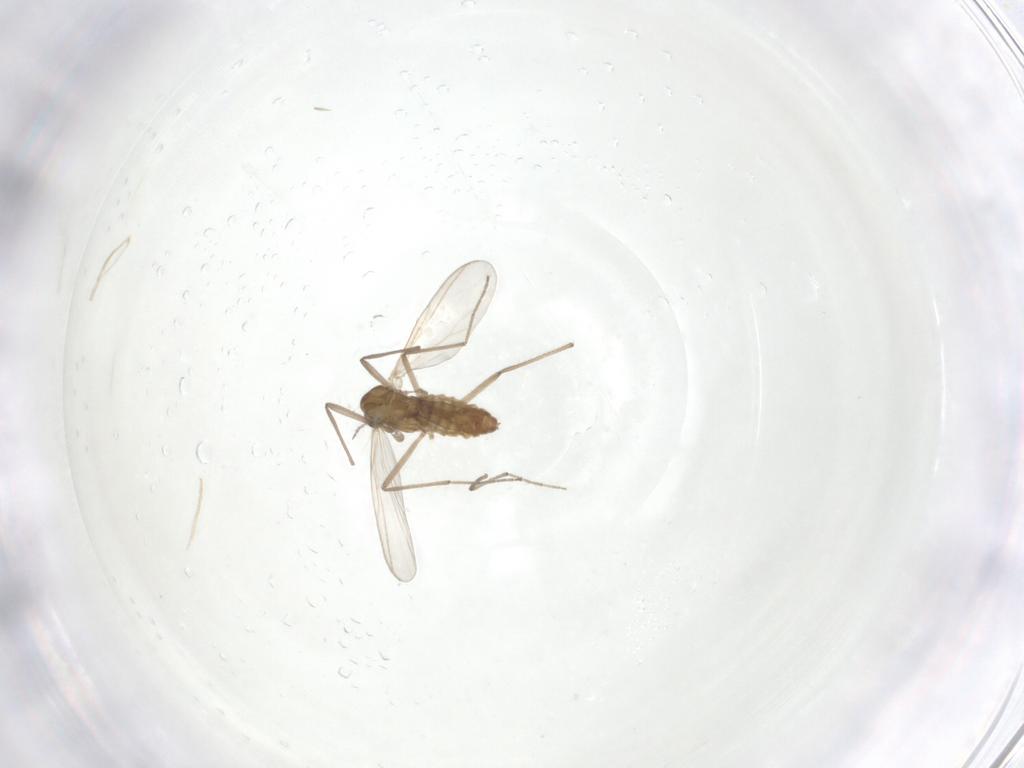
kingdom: Animalia
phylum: Arthropoda
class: Insecta
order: Diptera
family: Chironomidae
